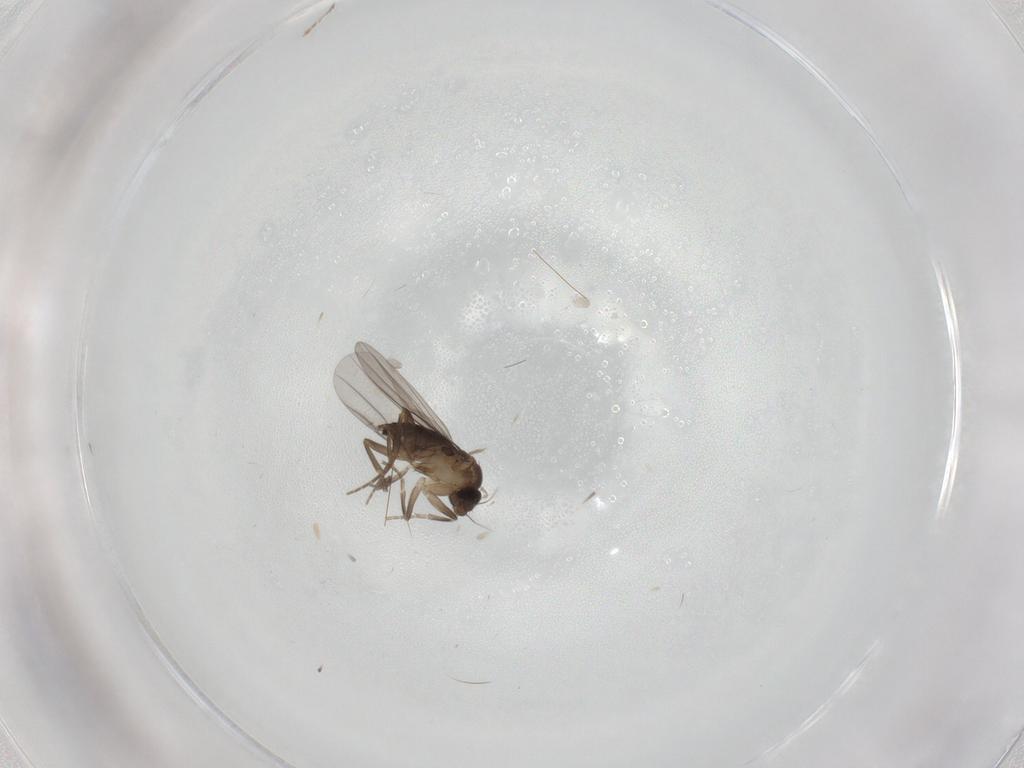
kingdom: Animalia
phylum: Arthropoda
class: Insecta
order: Diptera
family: Phoridae
